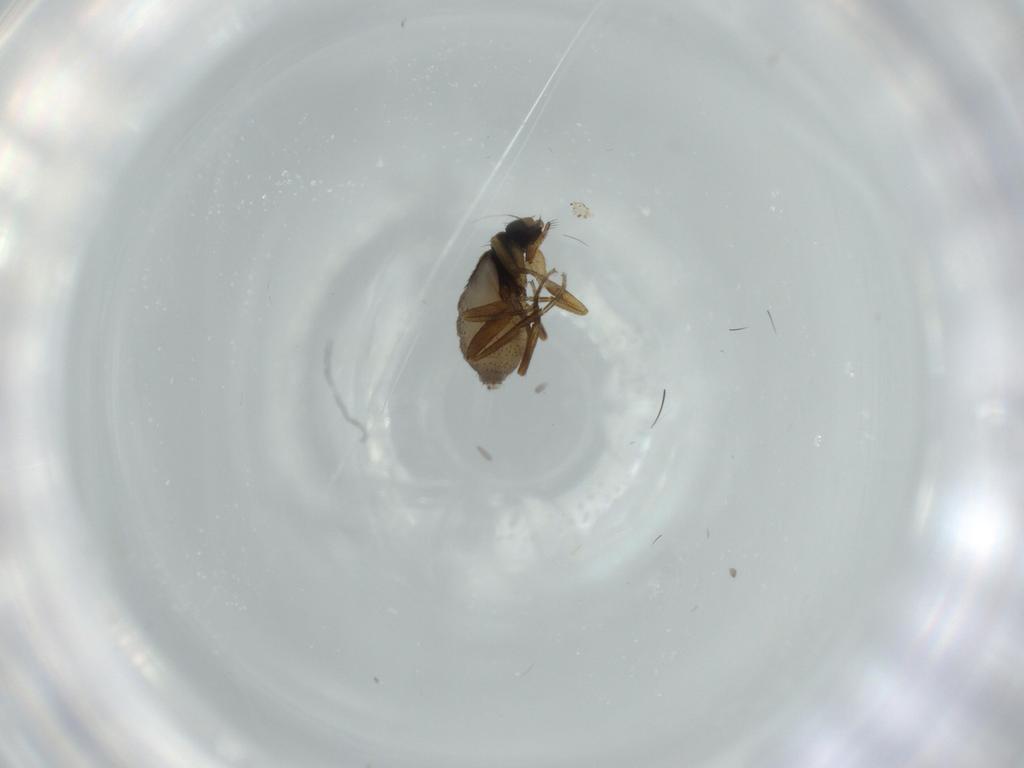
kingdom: Animalia
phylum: Arthropoda
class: Insecta
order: Diptera
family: Phoridae
